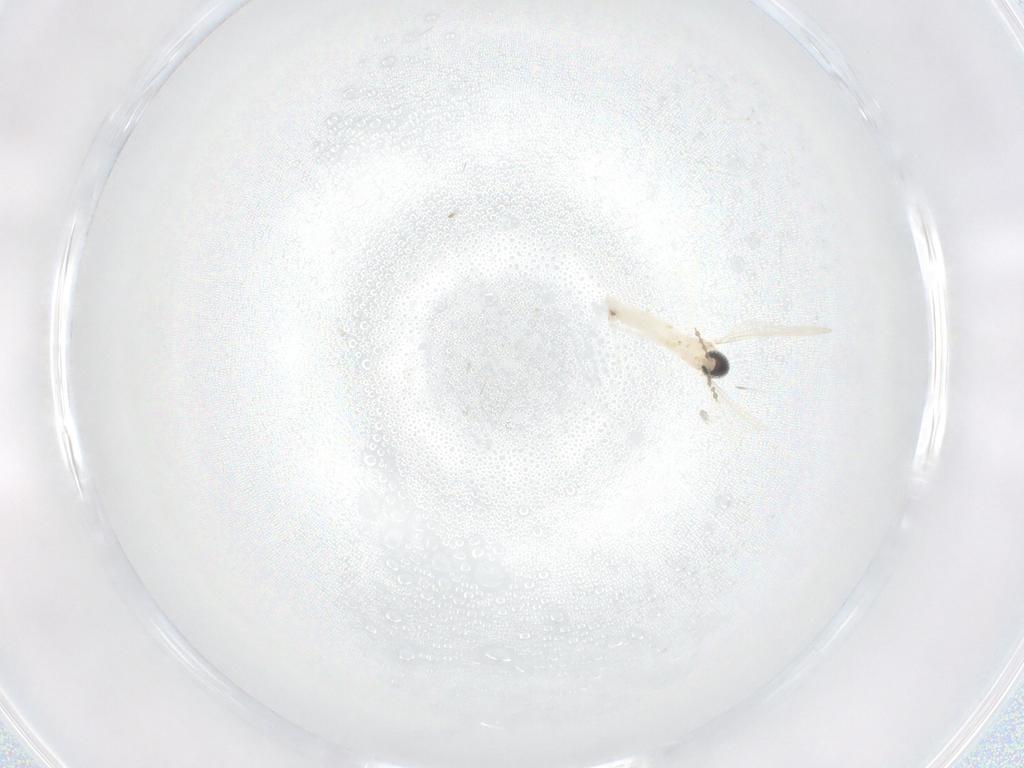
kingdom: Animalia
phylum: Arthropoda
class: Insecta
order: Diptera
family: Cecidomyiidae
